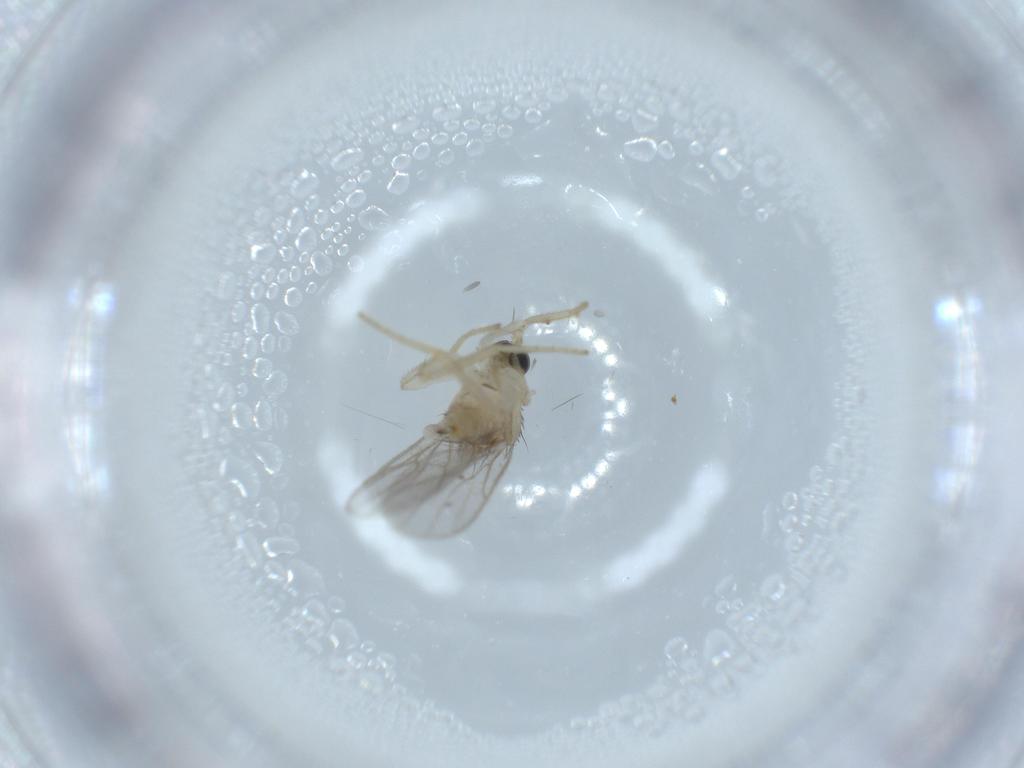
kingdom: Animalia
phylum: Arthropoda
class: Insecta
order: Diptera
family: Hybotidae
